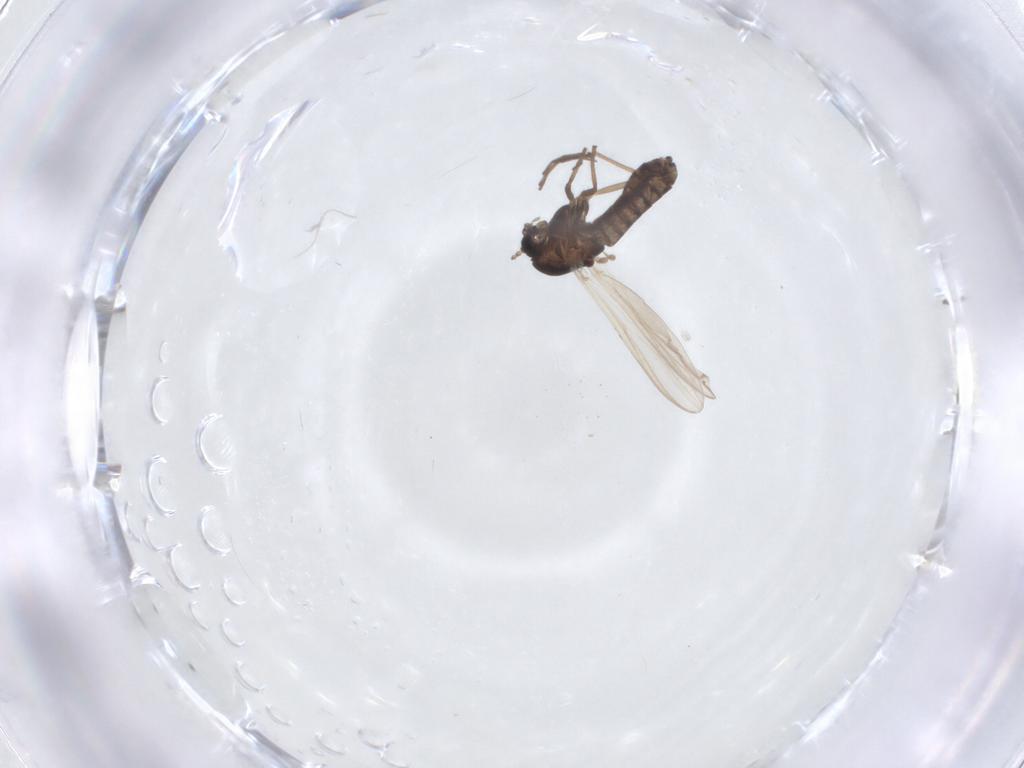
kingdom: Animalia
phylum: Arthropoda
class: Insecta
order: Diptera
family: Chironomidae
